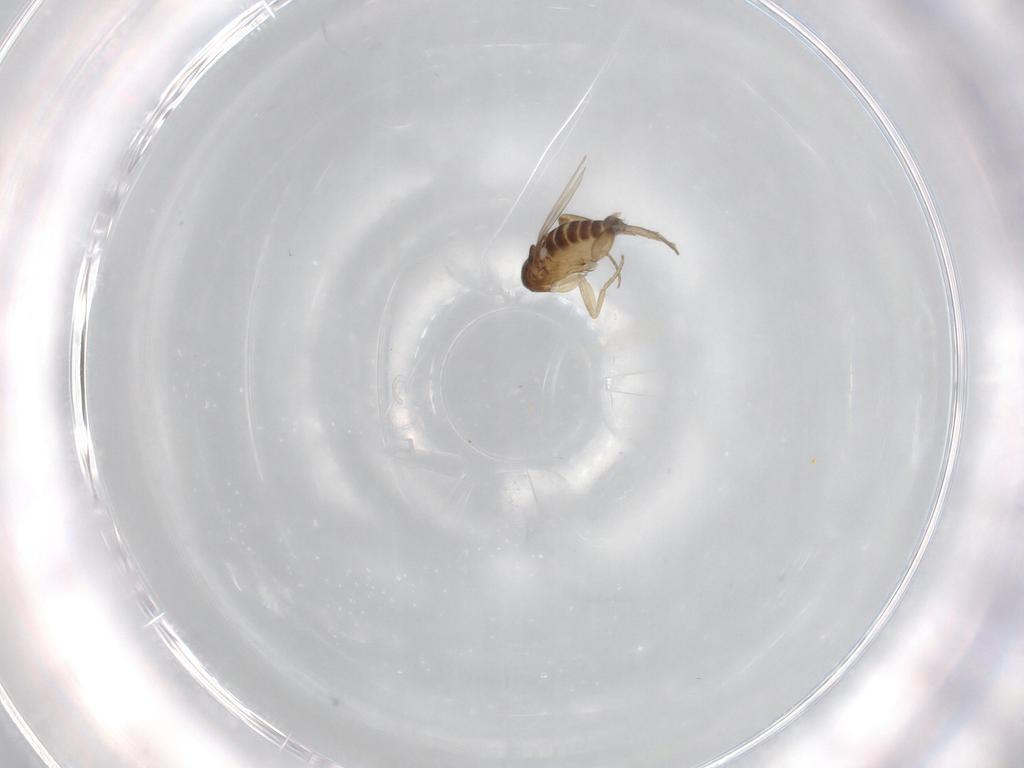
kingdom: Animalia
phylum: Arthropoda
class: Insecta
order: Diptera
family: Phoridae
